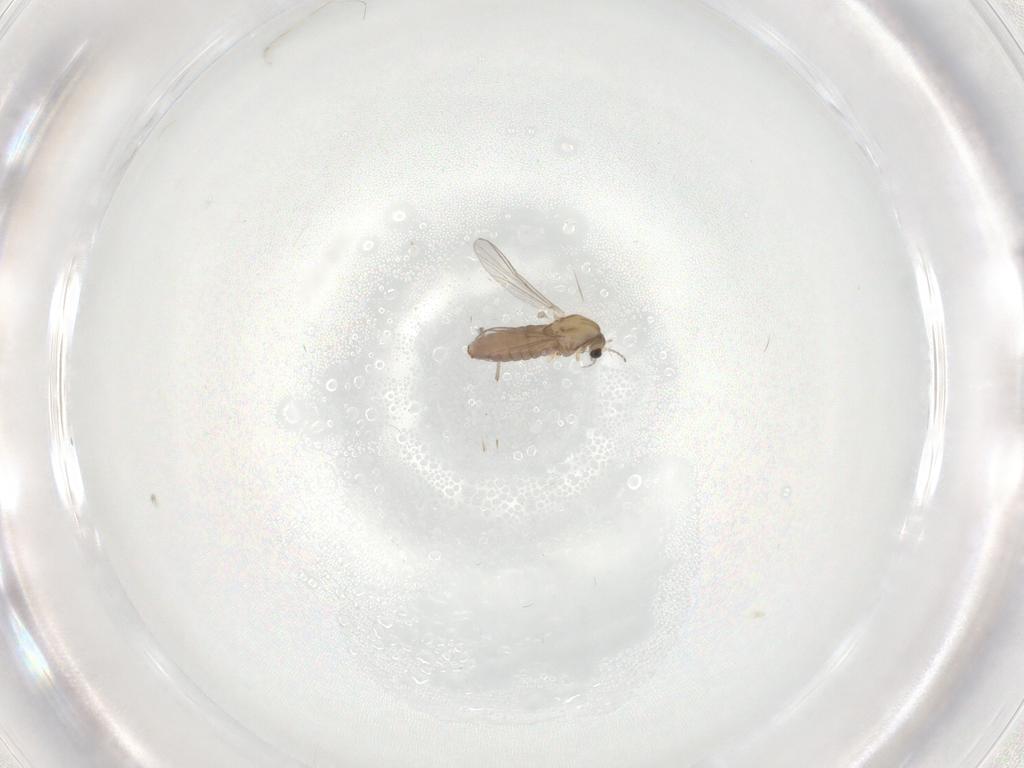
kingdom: Animalia
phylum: Arthropoda
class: Insecta
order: Diptera
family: Chironomidae
